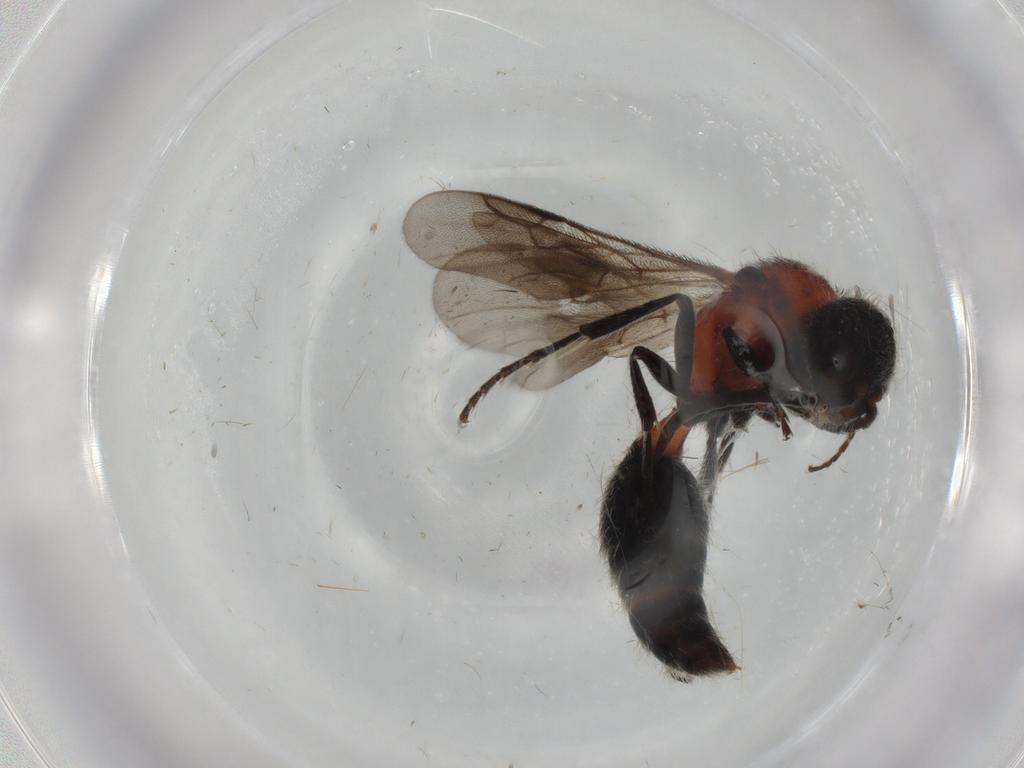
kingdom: Animalia
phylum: Arthropoda
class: Insecta
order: Hymenoptera
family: Mutillidae
